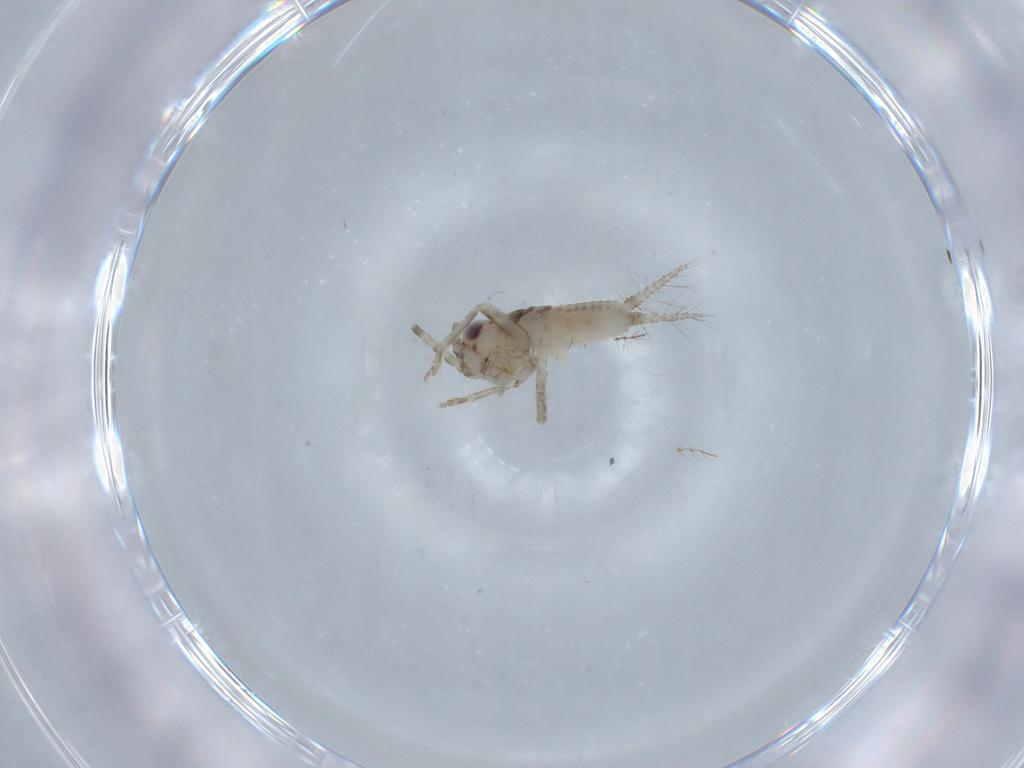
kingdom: Animalia
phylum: Arthropoda
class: Insecta
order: Orthoptera
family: Trigonidiidae
